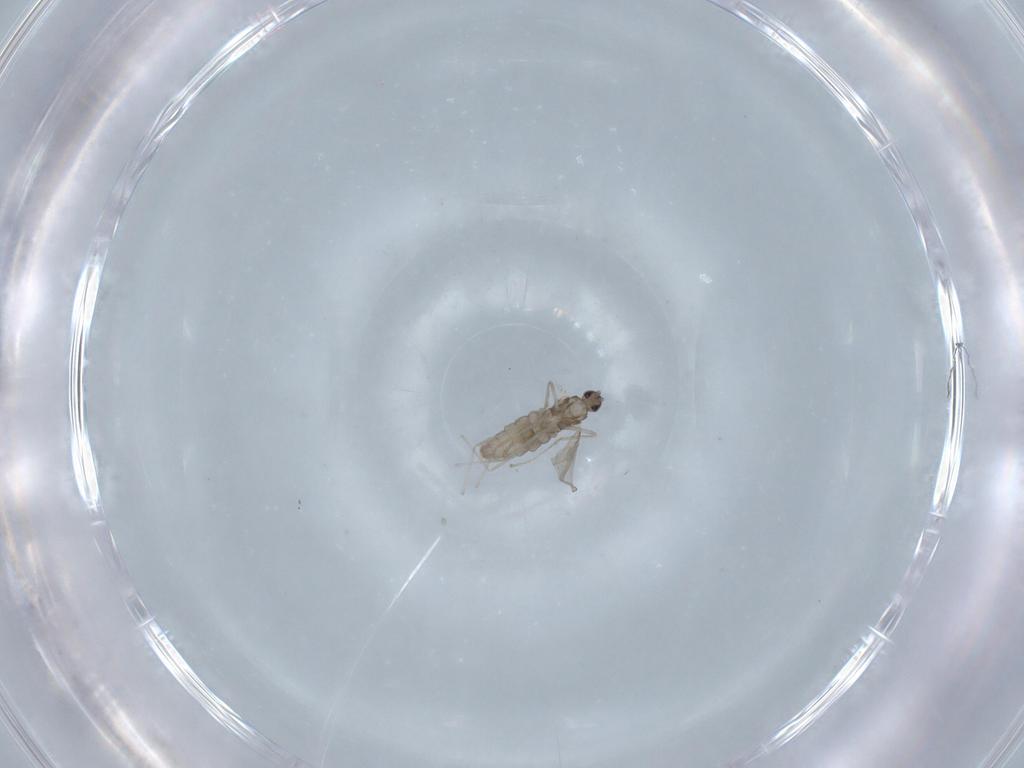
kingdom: Animalia
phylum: Arthropoda
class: Insecta
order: Diptera
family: Cecidomyiidae
